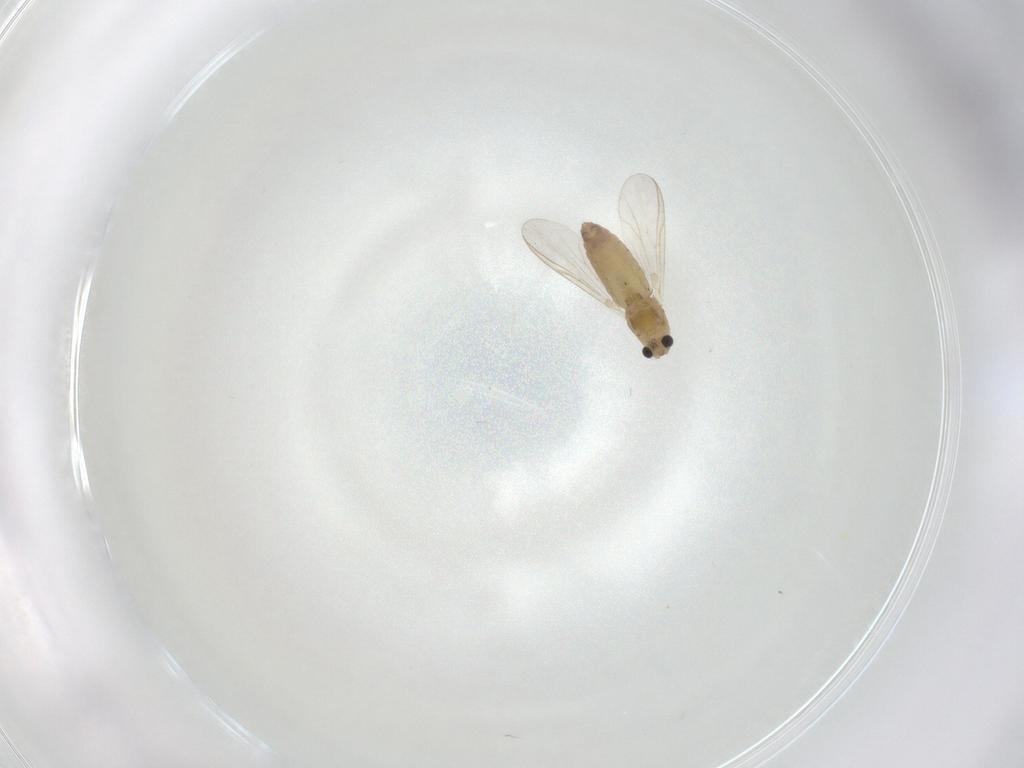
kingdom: Animalia
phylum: Arthropoda
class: Insecta
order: Diptera
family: Chironomidae
